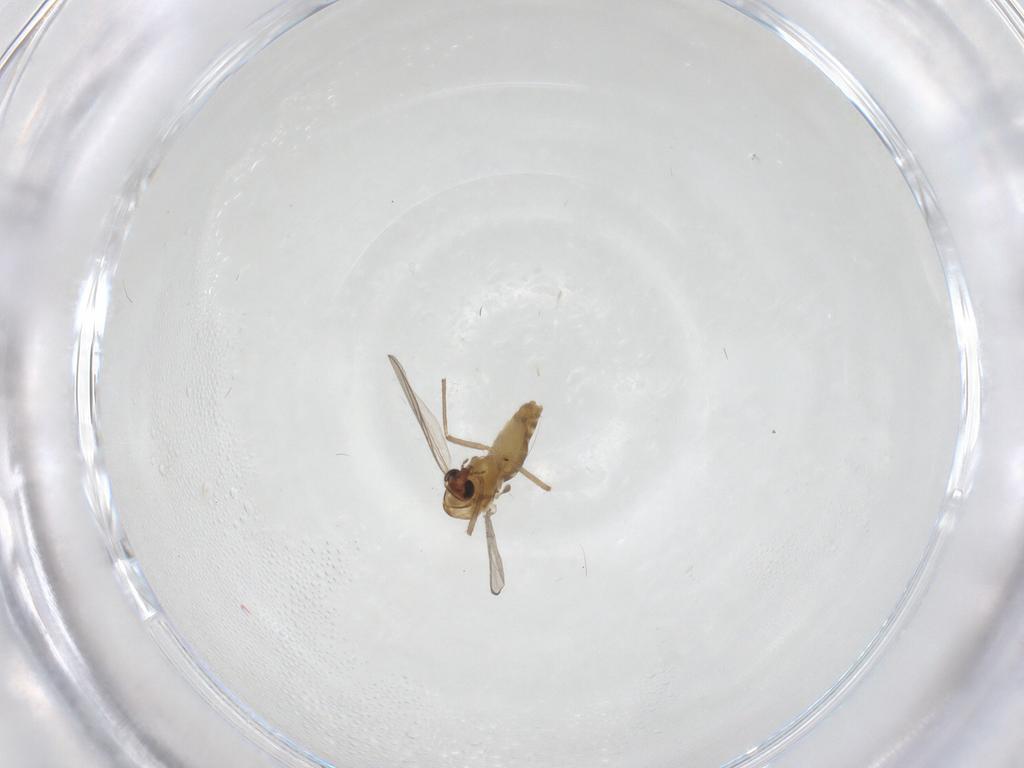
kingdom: Animalia
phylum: Arthropoda
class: Insecta
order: Diptera
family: Chironomidae
